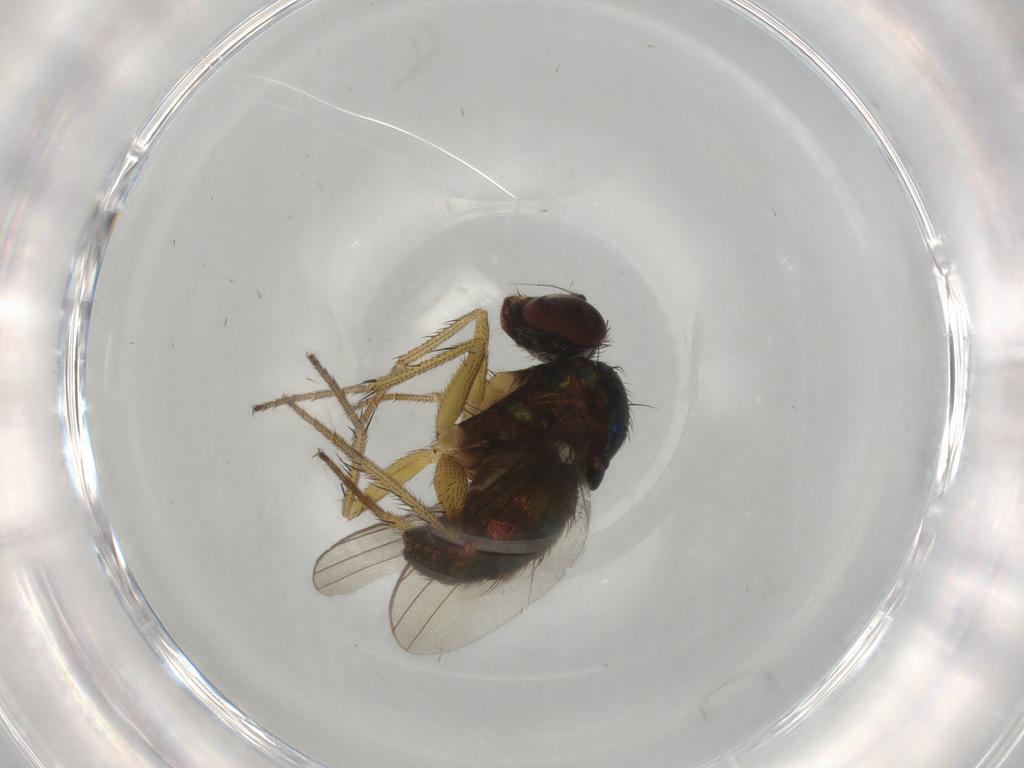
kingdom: Animalia
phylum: Arthropoda
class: Insecta
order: Diptera
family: Dolichopodidae
